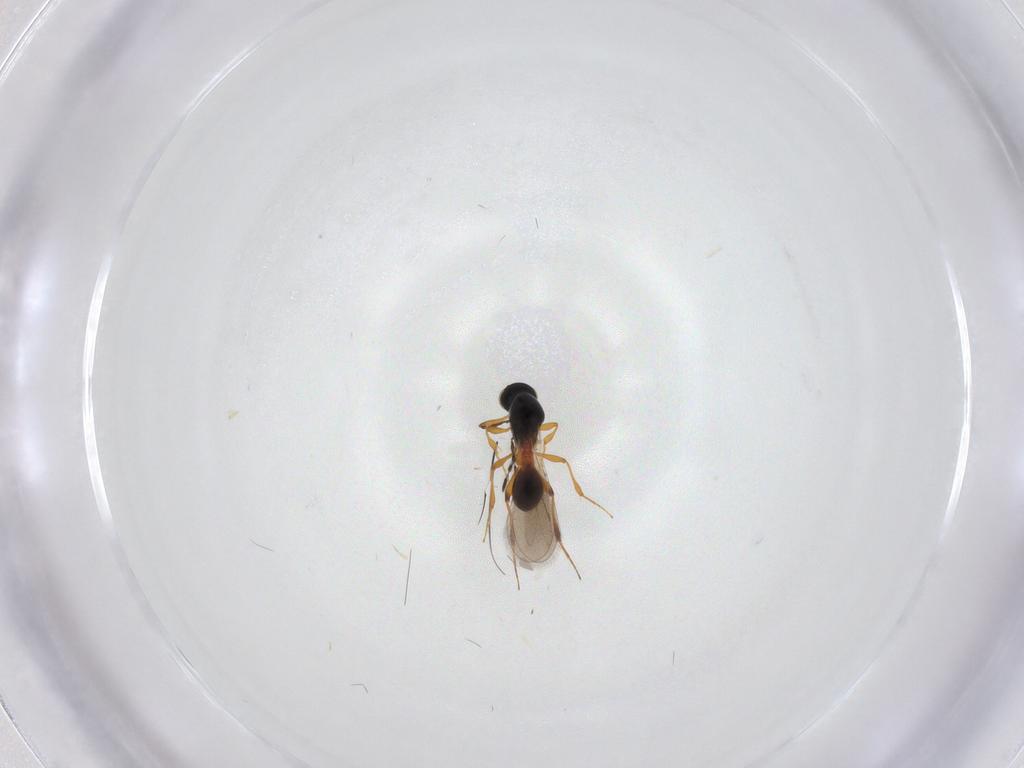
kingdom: Animalia
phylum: Arthropoda
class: Insecta
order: Hymenoptera
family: Platygastridae
